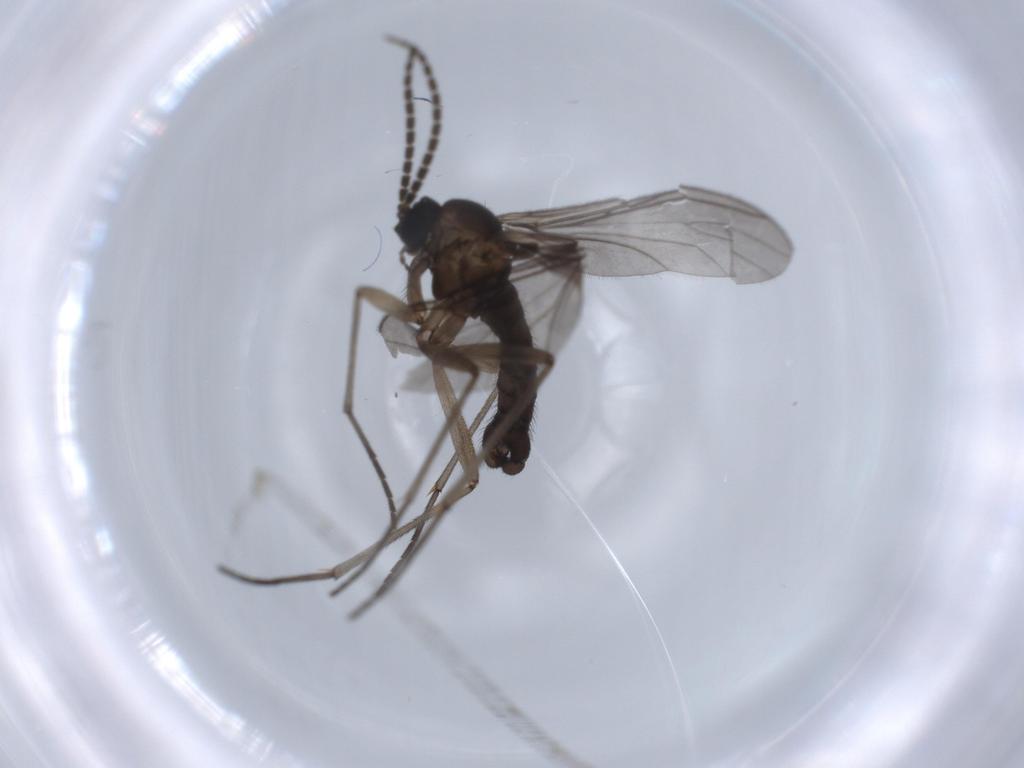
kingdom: Animalia
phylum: Arthropoda
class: Insecta
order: Diptera
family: Sciaridae
